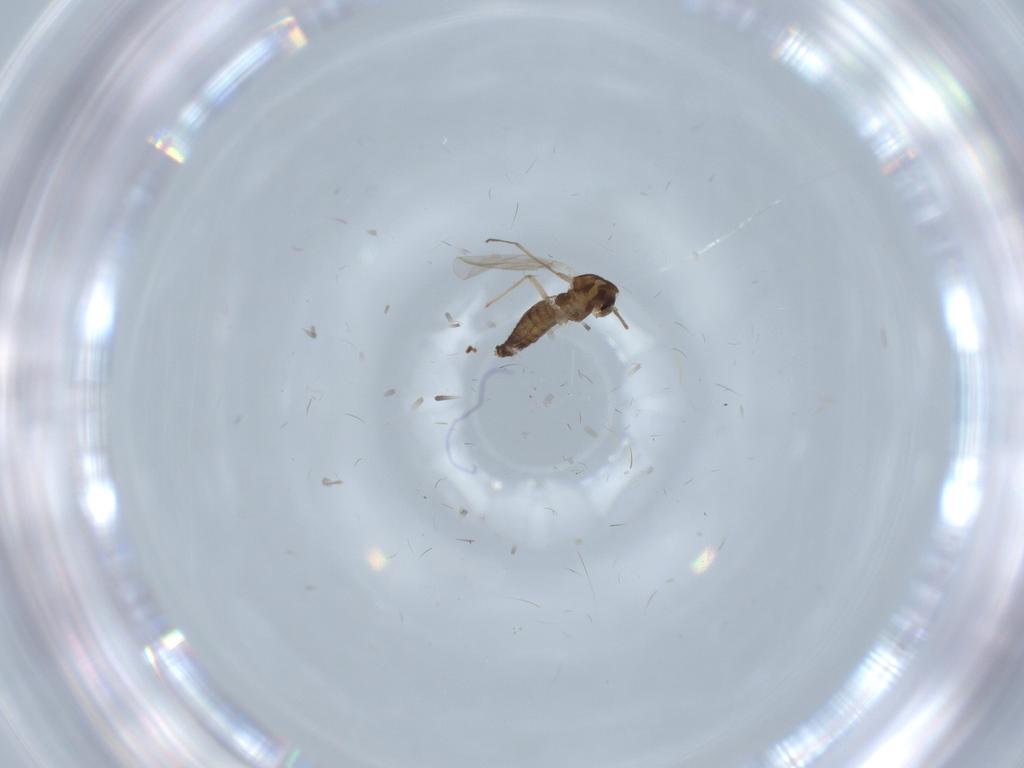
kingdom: Animalia
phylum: Arthropoda
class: Insecta
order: Diptera
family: Chironomidae
